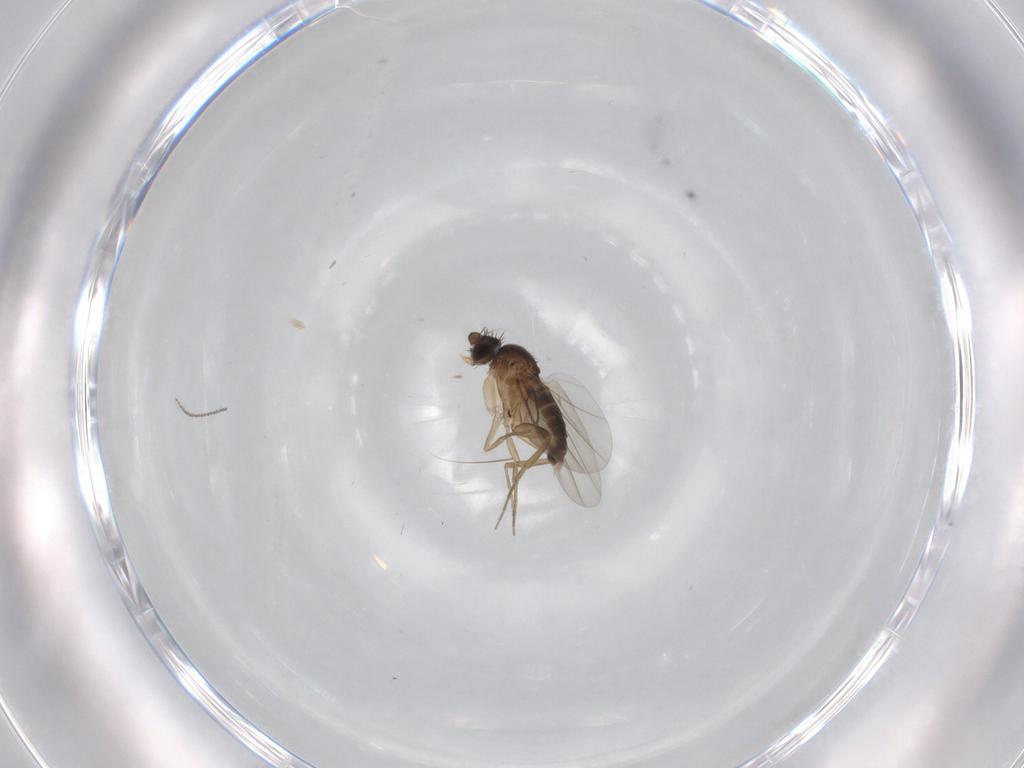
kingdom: Animalia
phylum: Arthropoda
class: Insecta
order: Diptera
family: Phoridae
